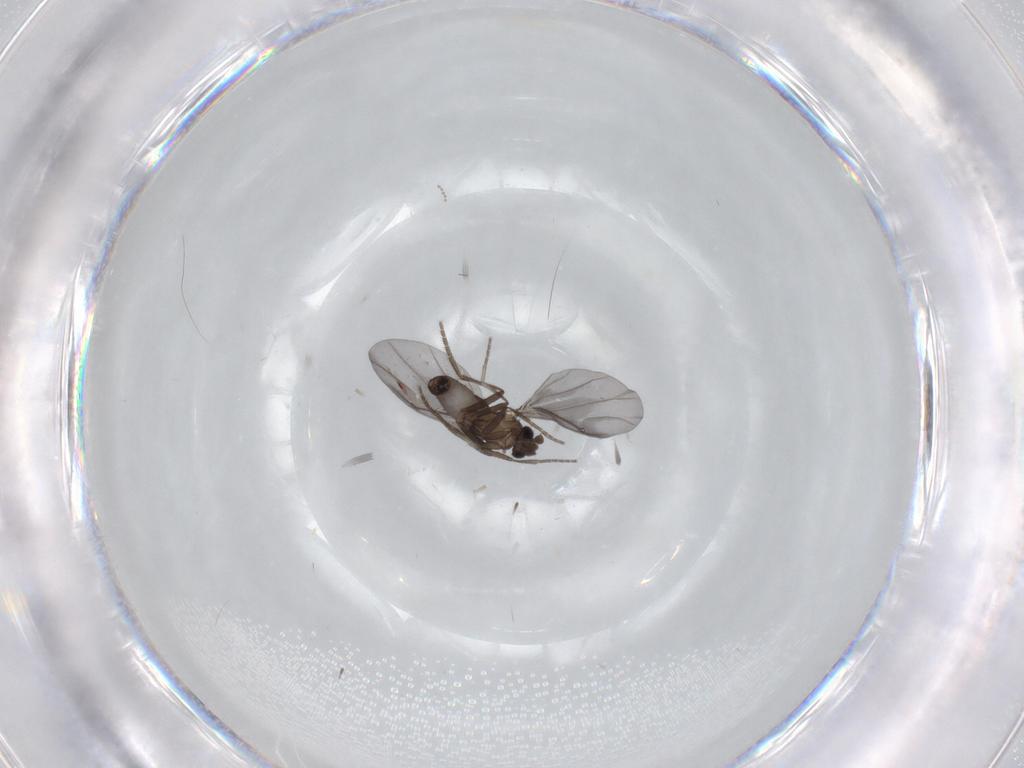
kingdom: Animalia
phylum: Arthropoda
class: Insecta
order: Diptera
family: Phoridae
